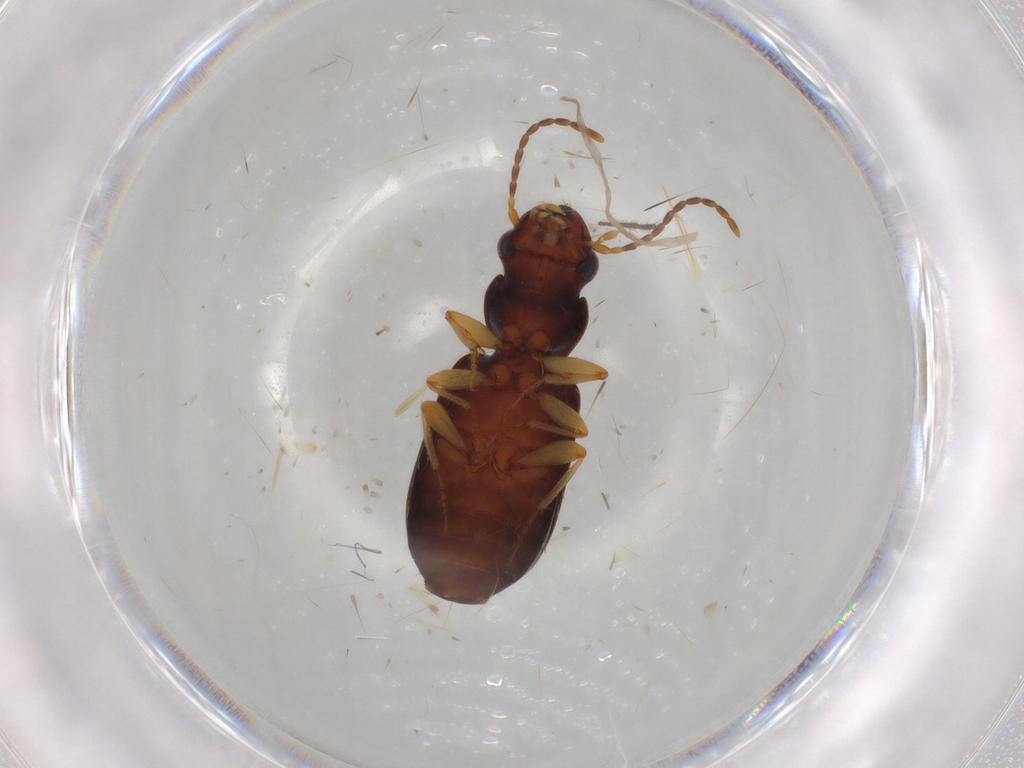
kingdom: Animalia
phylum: Arthropoda
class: Insecta
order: Coleoptera
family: Carabidae
